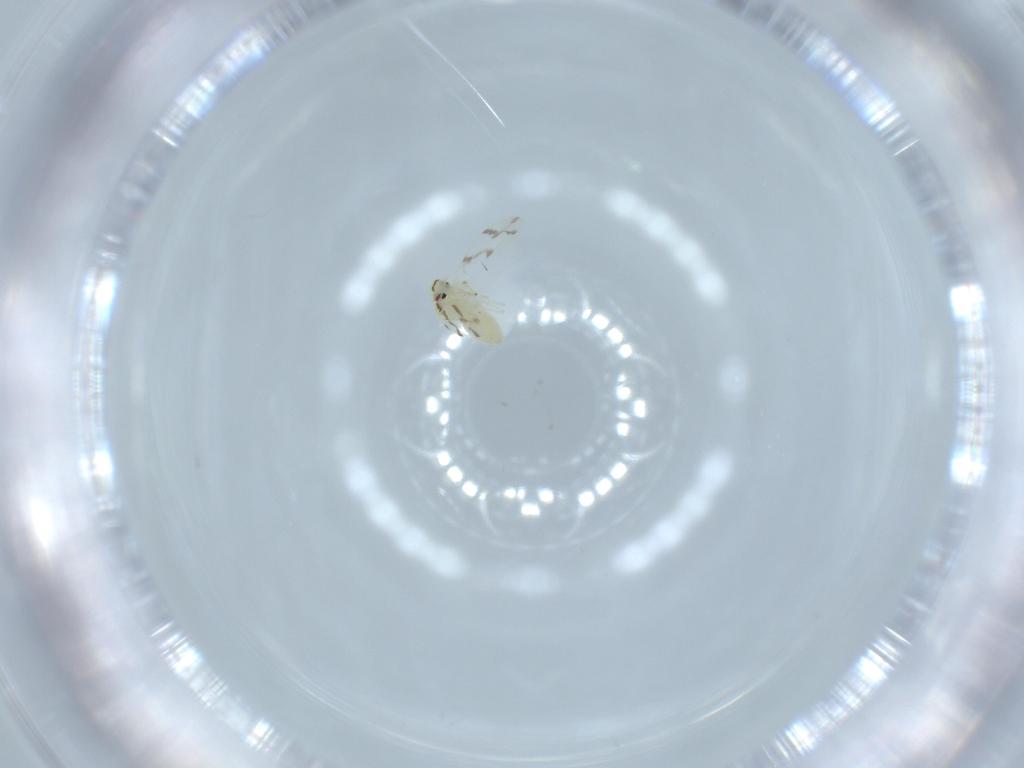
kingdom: Animalia
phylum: Arthropoda
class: Insecta
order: Hemiptera
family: Aleyrodidae
